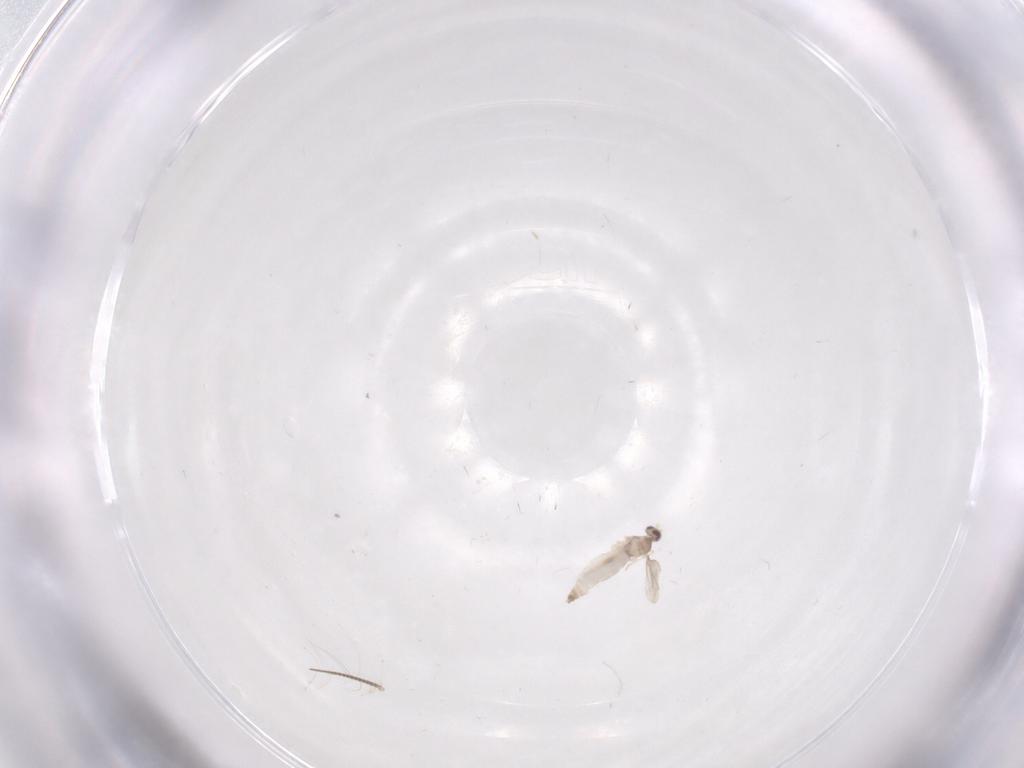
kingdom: Animalia
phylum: Arthropoda
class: Insecta
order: Diptera
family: Cecidomyiidae
